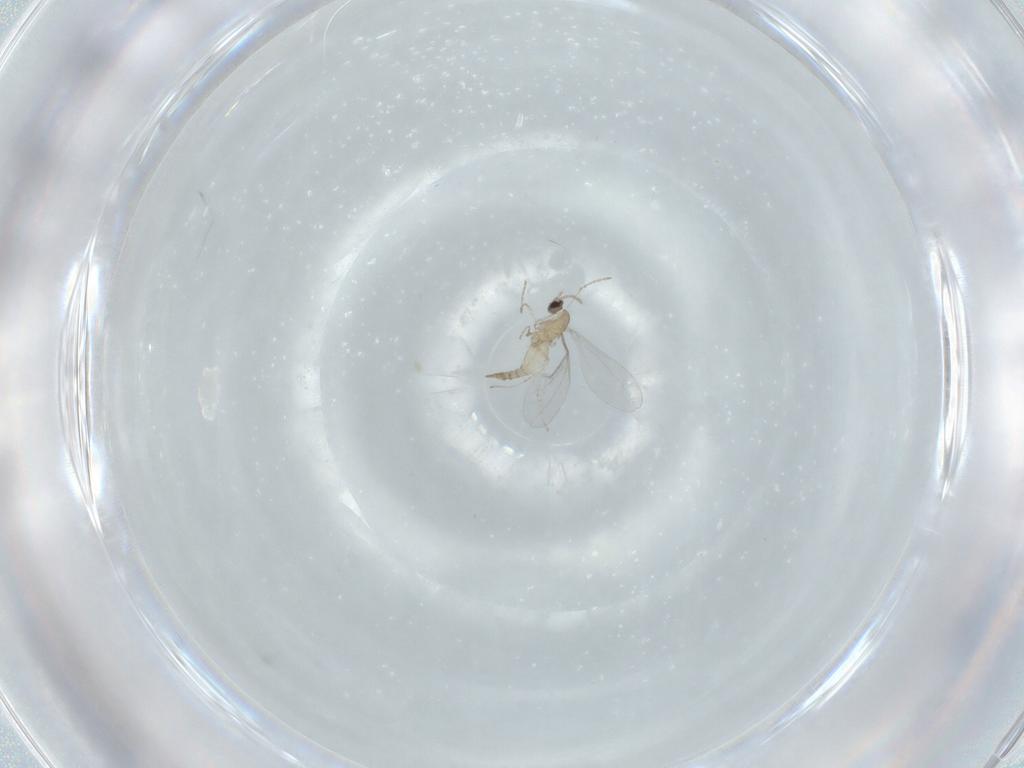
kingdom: Animalia
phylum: Arthropoda
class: Insecta
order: Diptera
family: Cecidomyiidae
